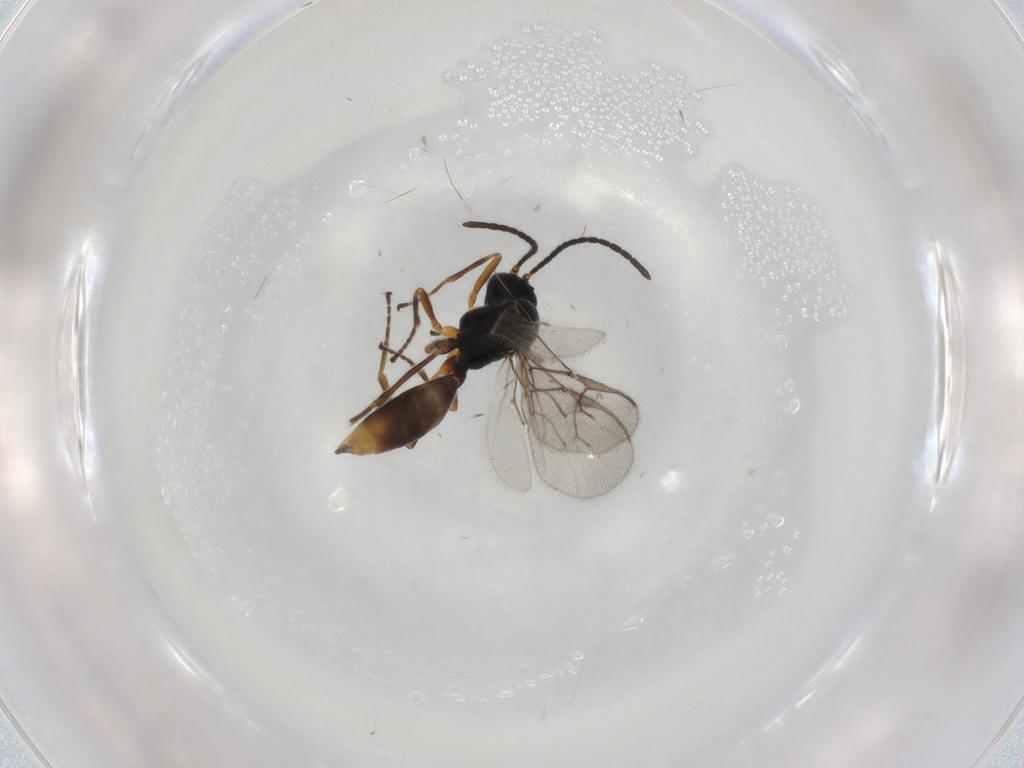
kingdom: Animalia
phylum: Arthropoda
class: Insecta
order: Hymenoptera
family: Braconidae
